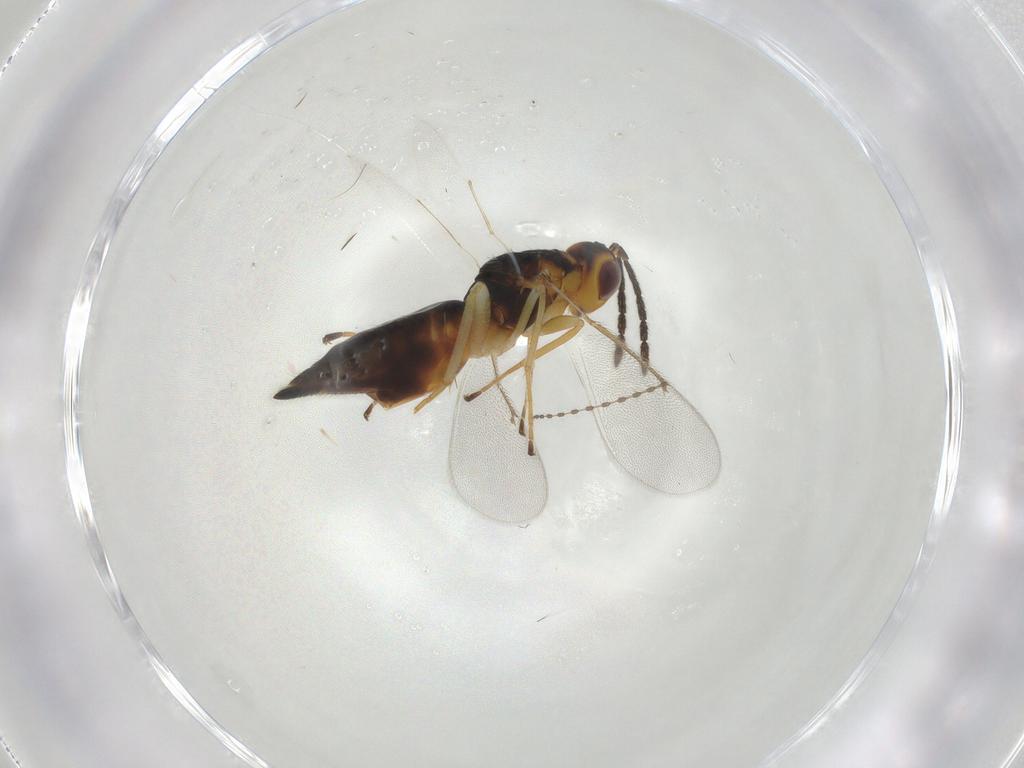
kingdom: Animalia
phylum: Arthropoda
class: Insecta
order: Hymenoptera
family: Eulophidae
